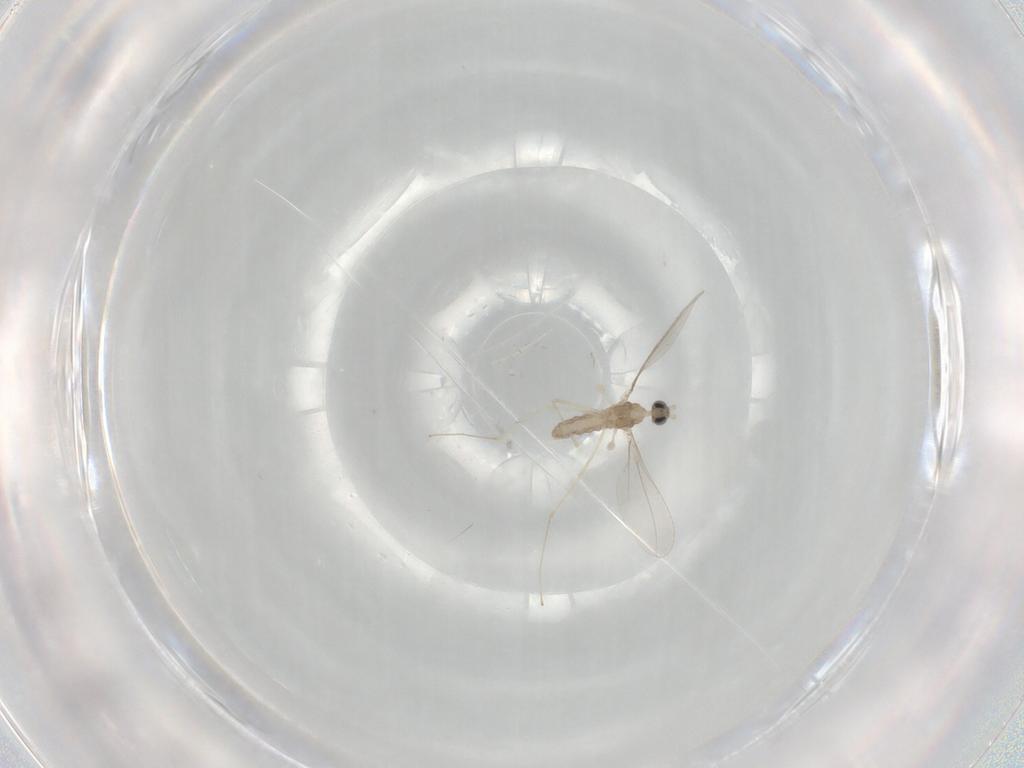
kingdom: Animalia
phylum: Arthropoda
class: Insecta
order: Diptera
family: Cecidomyiidae
